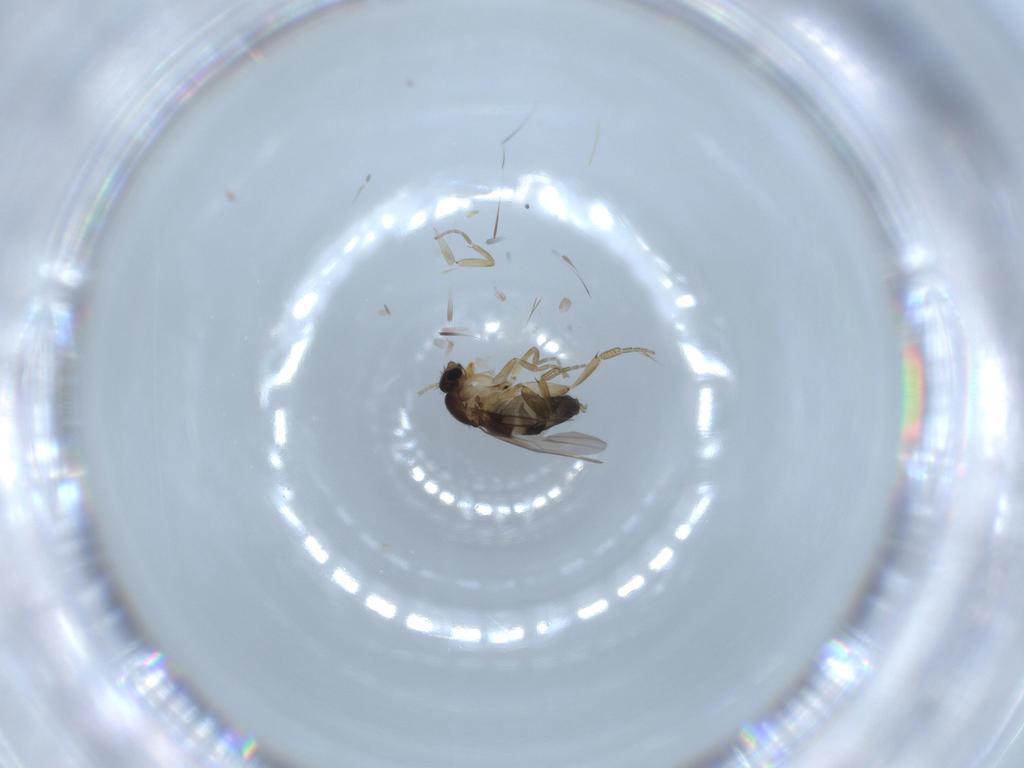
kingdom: Animalia
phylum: Arthropoda
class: Insecta
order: Diptera
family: Phoridae
